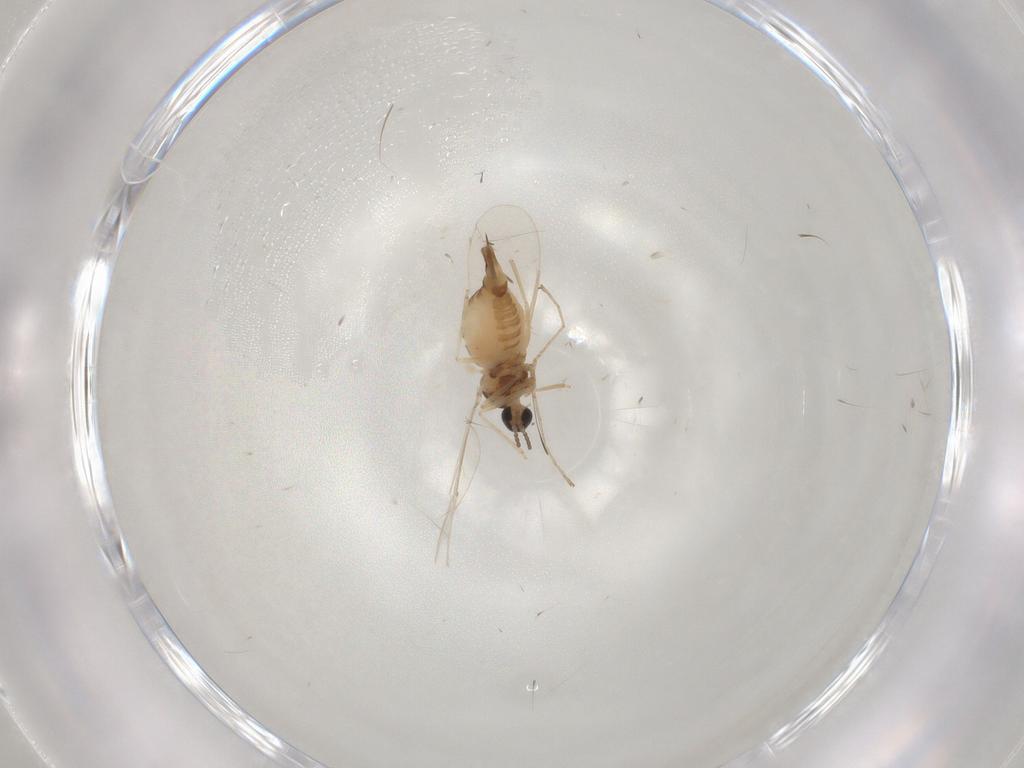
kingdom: Animalia
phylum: Arthropoda
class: Insecta
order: Diptera
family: Cecidomyiidae
